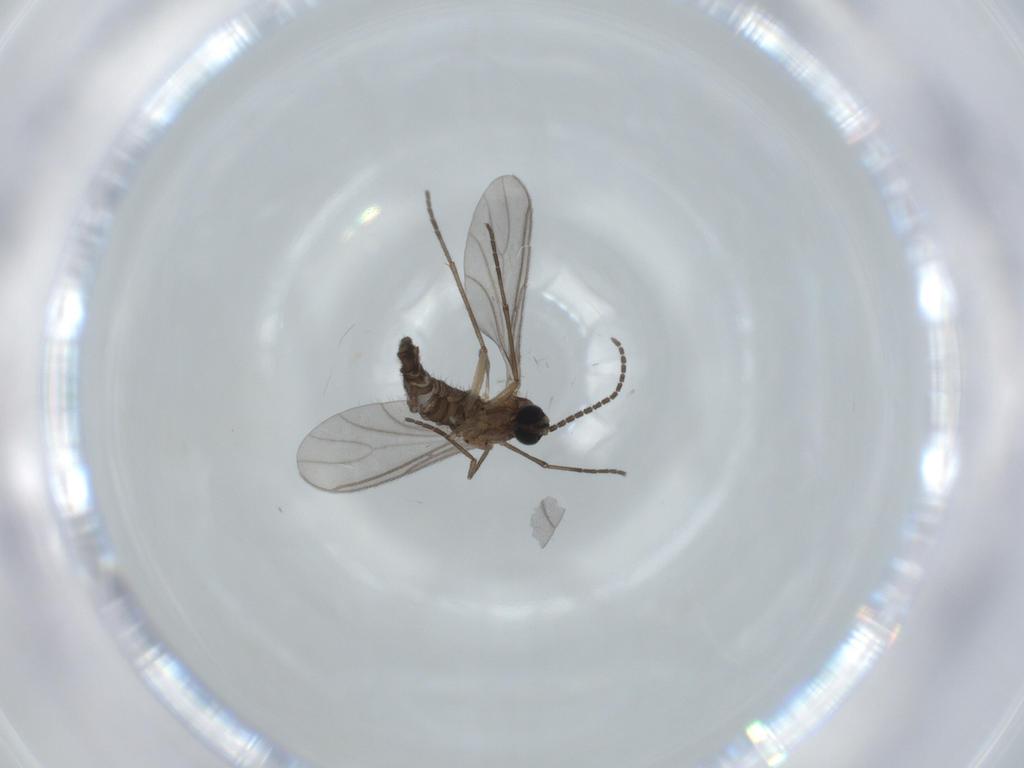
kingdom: Animalia
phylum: Arthropoda
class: Insecta
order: Diptera
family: Sciaridae
